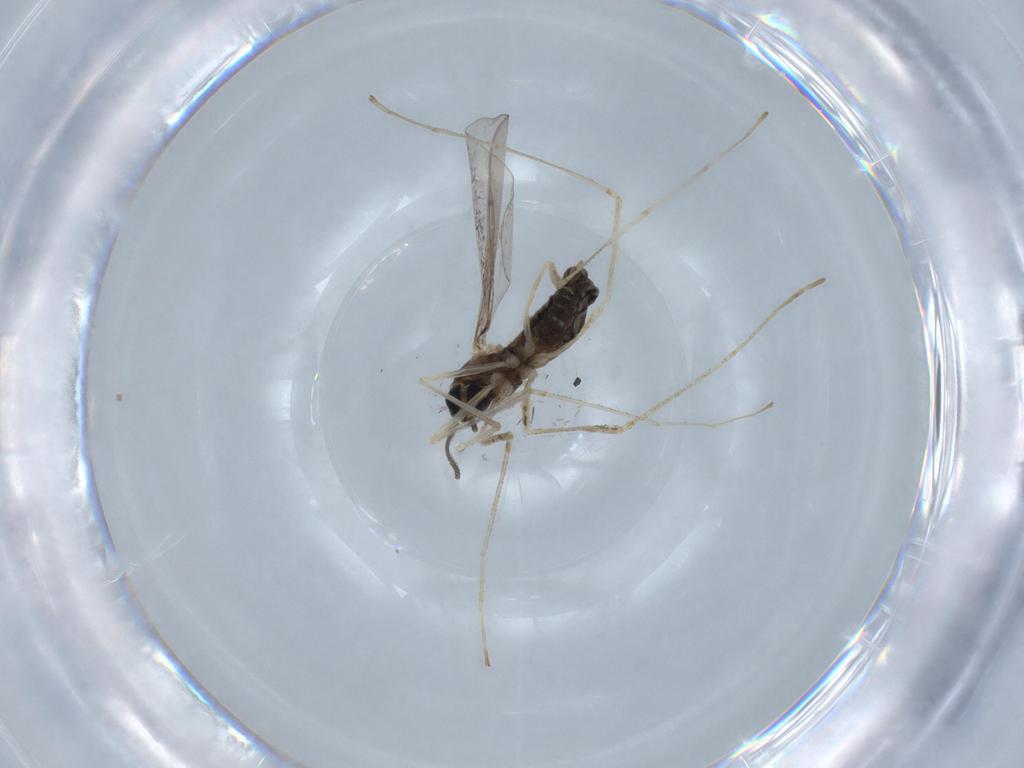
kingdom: Animalia
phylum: Arthropoda
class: Insecta
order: Diptera
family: Cecidomyiidae
